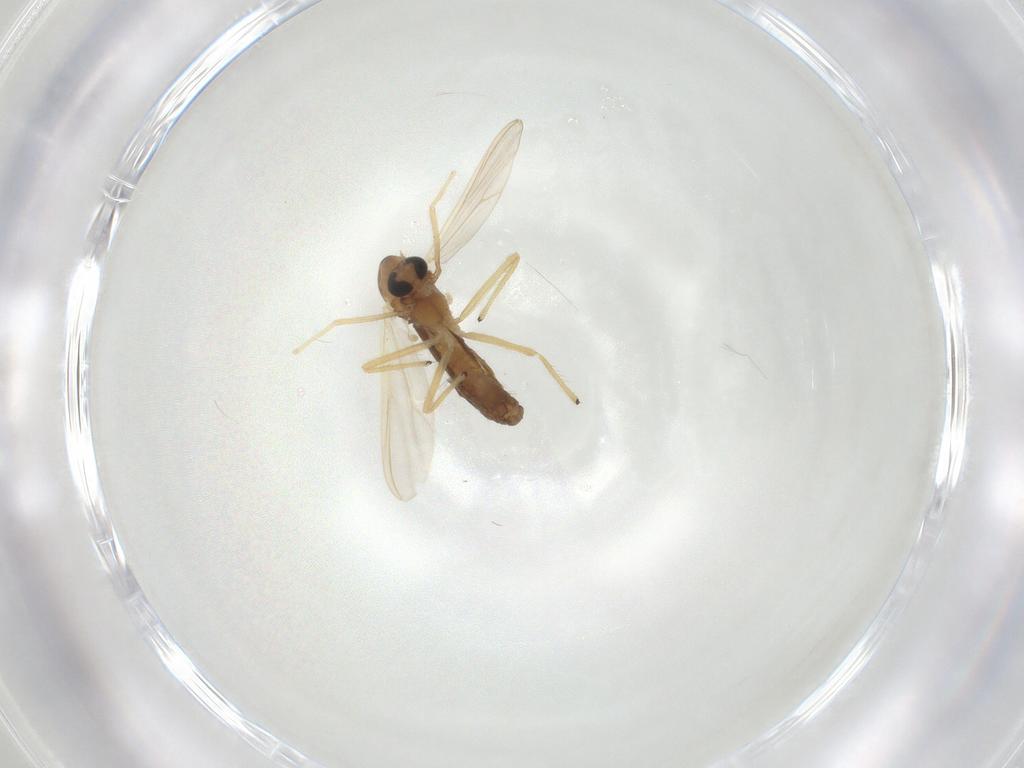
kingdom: Animalia
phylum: Arthropoda
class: Insecta
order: Diptera
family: Chironomidae
